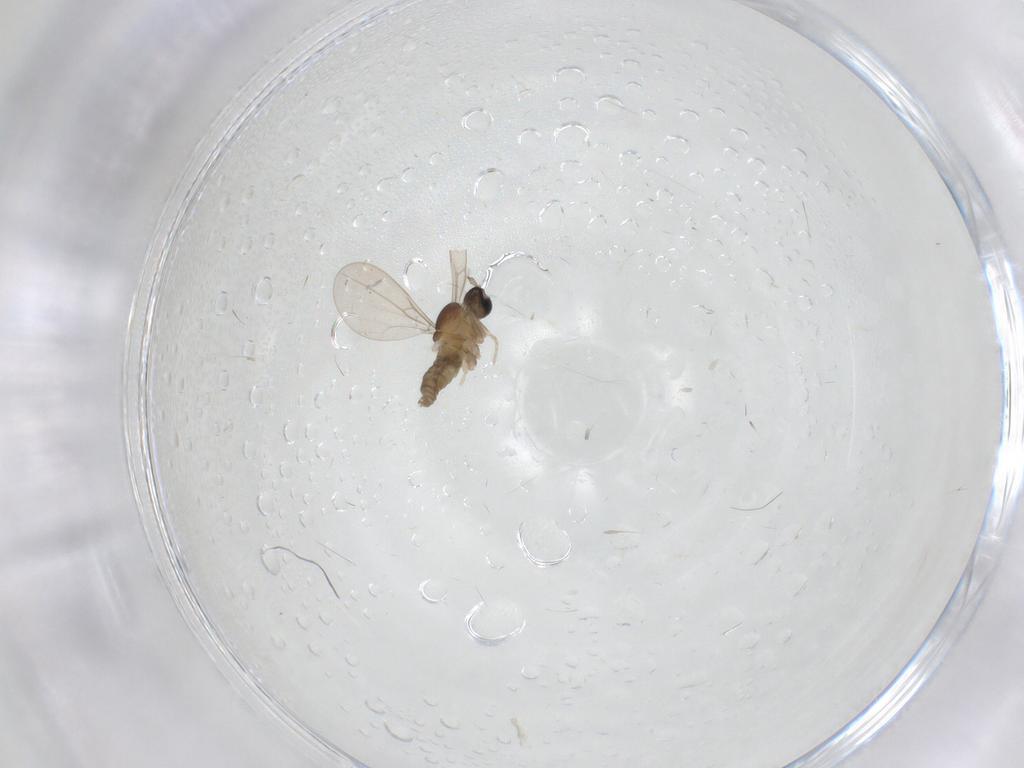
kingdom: Animalia
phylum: Arthropoda
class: Insecta
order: Diptera
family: Cecidomyiidae
